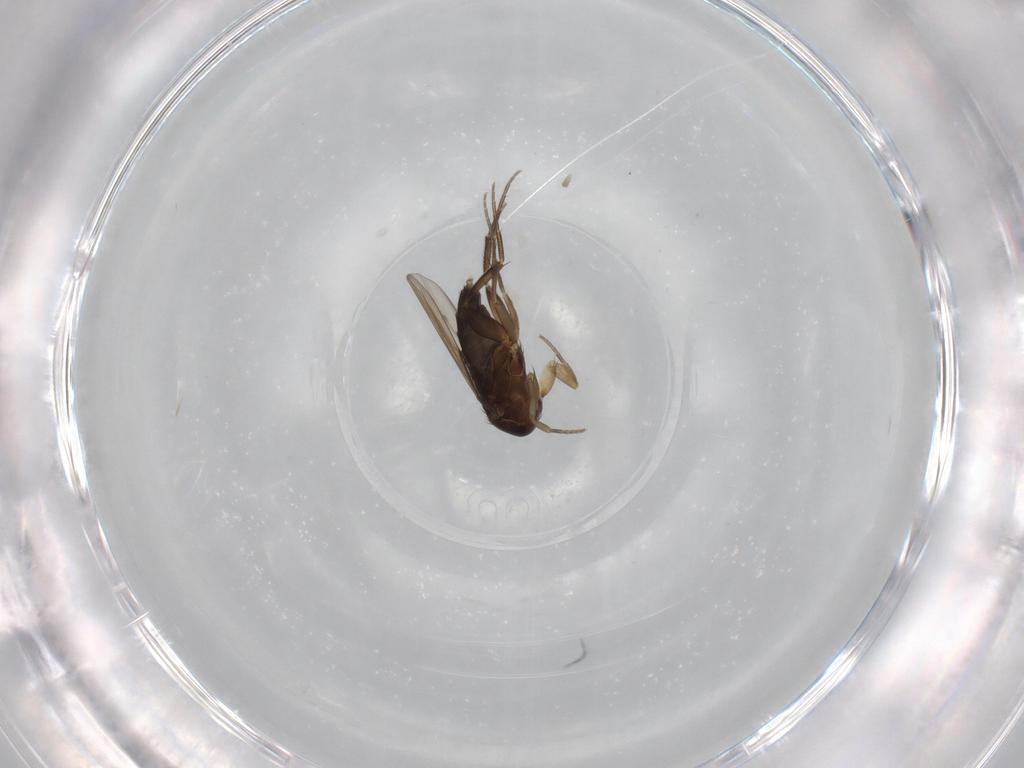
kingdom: Animalia
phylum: Arthropoda
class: Insecta
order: Diptera
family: Phoridae
